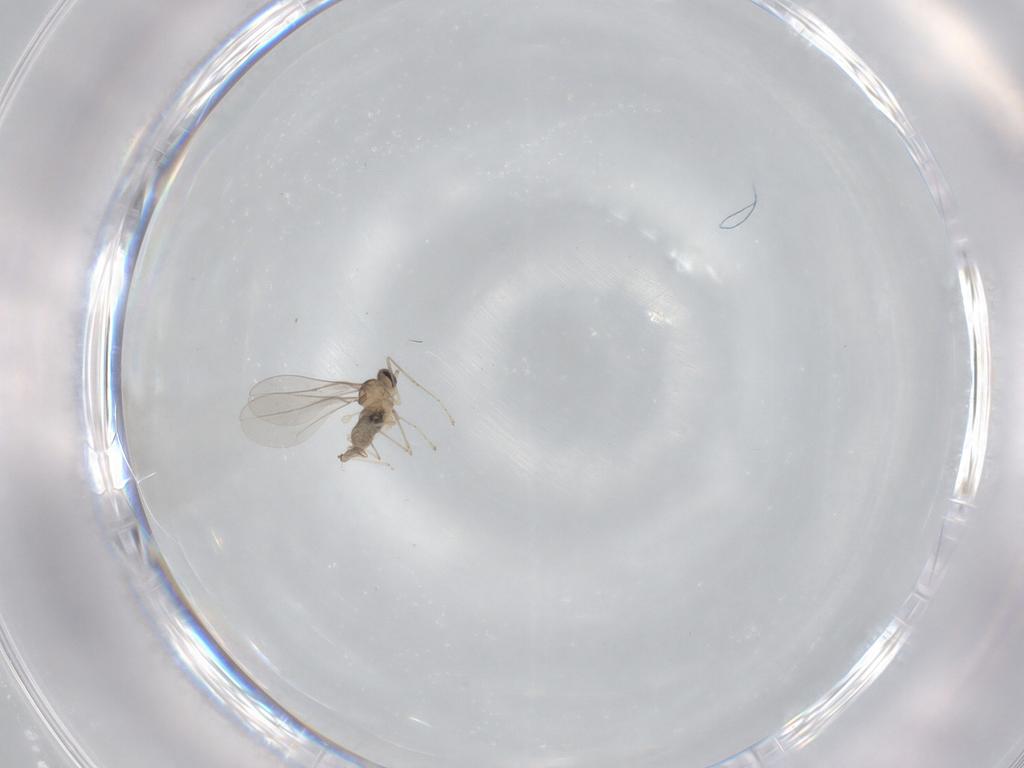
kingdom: Animalia
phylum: Arthropoda
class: Insecta
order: Diptera
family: Cecidomyiidae
